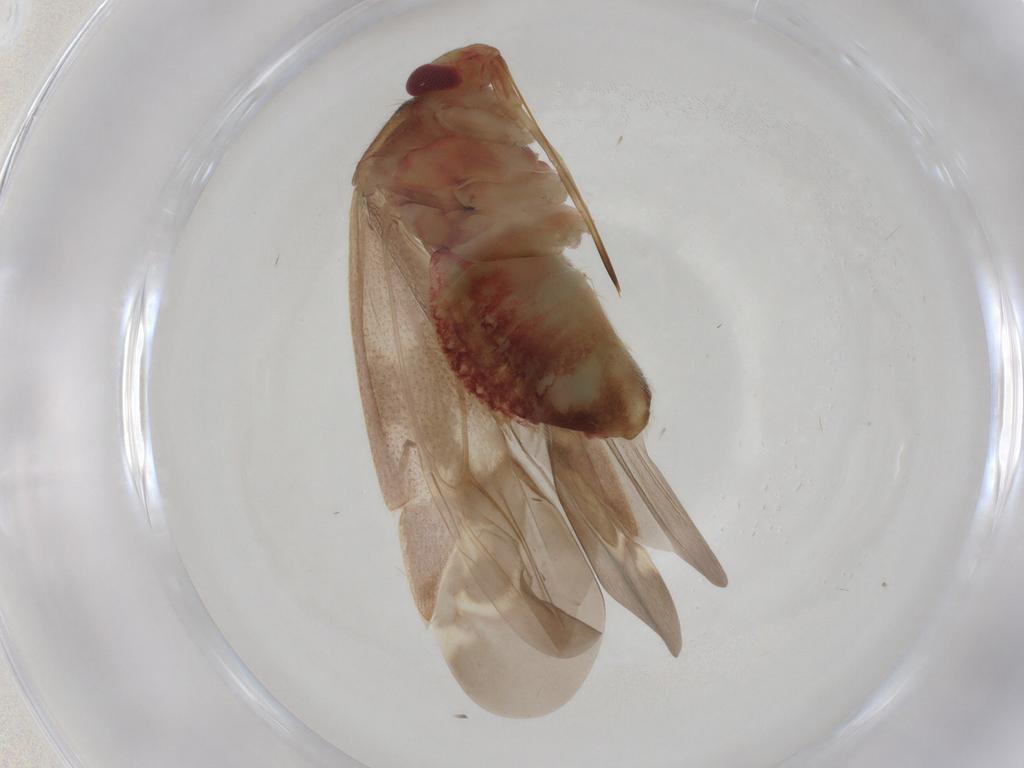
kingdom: Animalia
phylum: Arthropoda
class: Insecta
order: Hemiptera
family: Miridae
